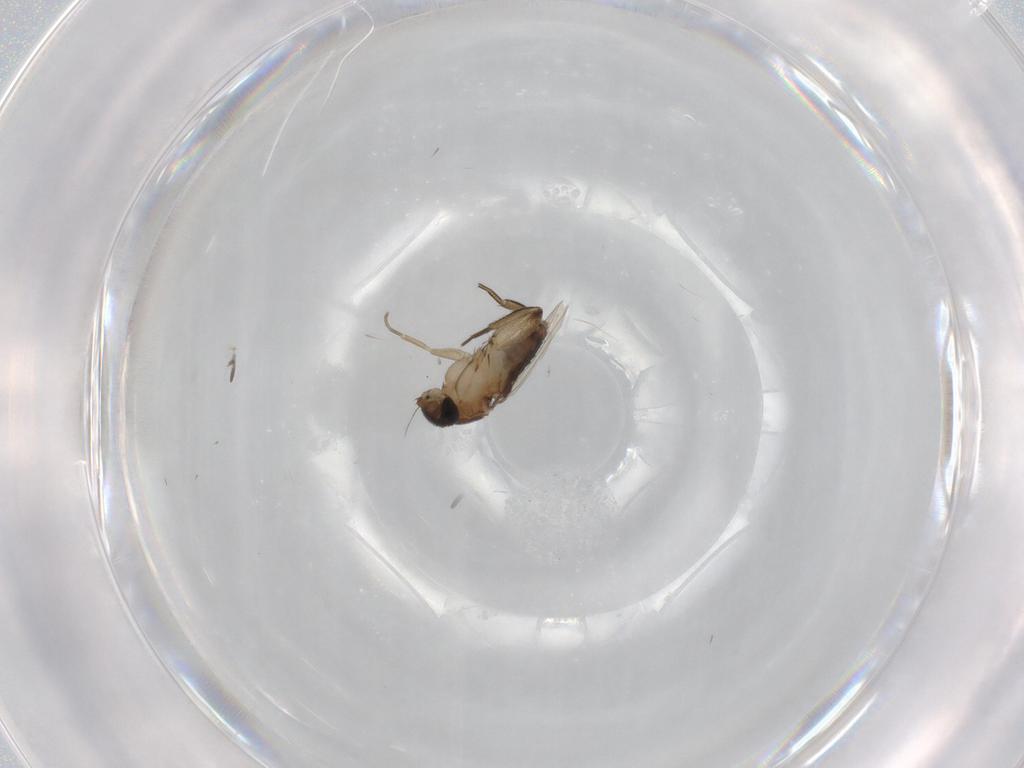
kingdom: Animalia
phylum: Arthropoda
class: Insecta
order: Diptera
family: Phoridae
